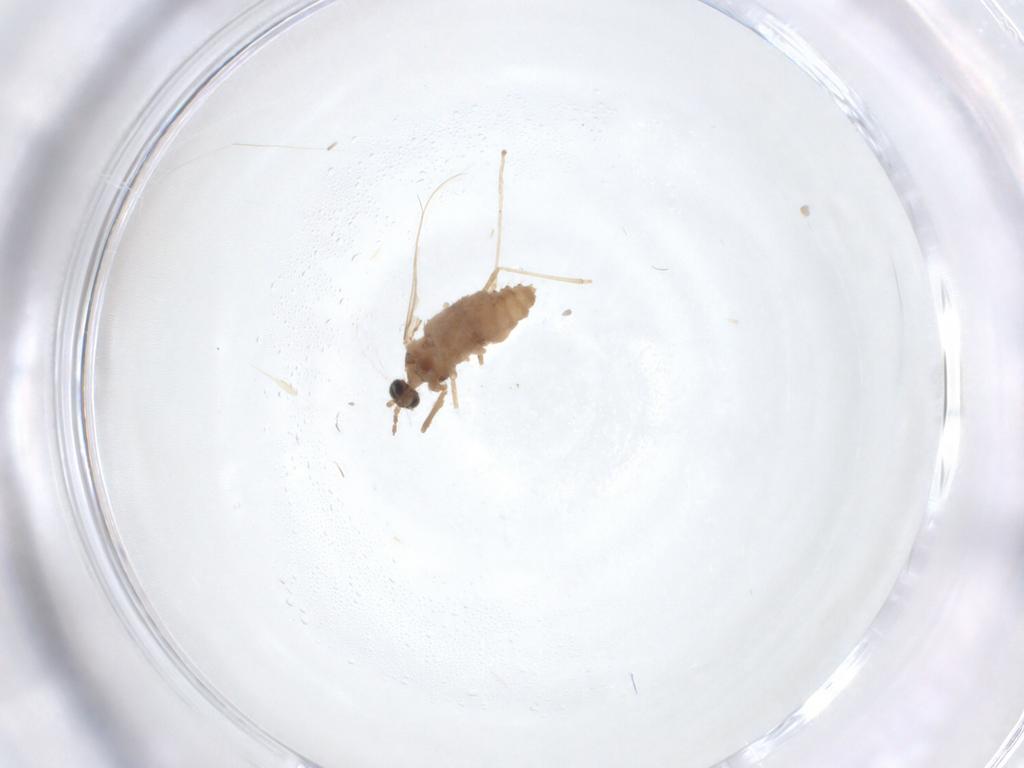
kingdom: Animalia
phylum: Arthropoda
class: Insecta
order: Diptera
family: Cecidomyiidae
